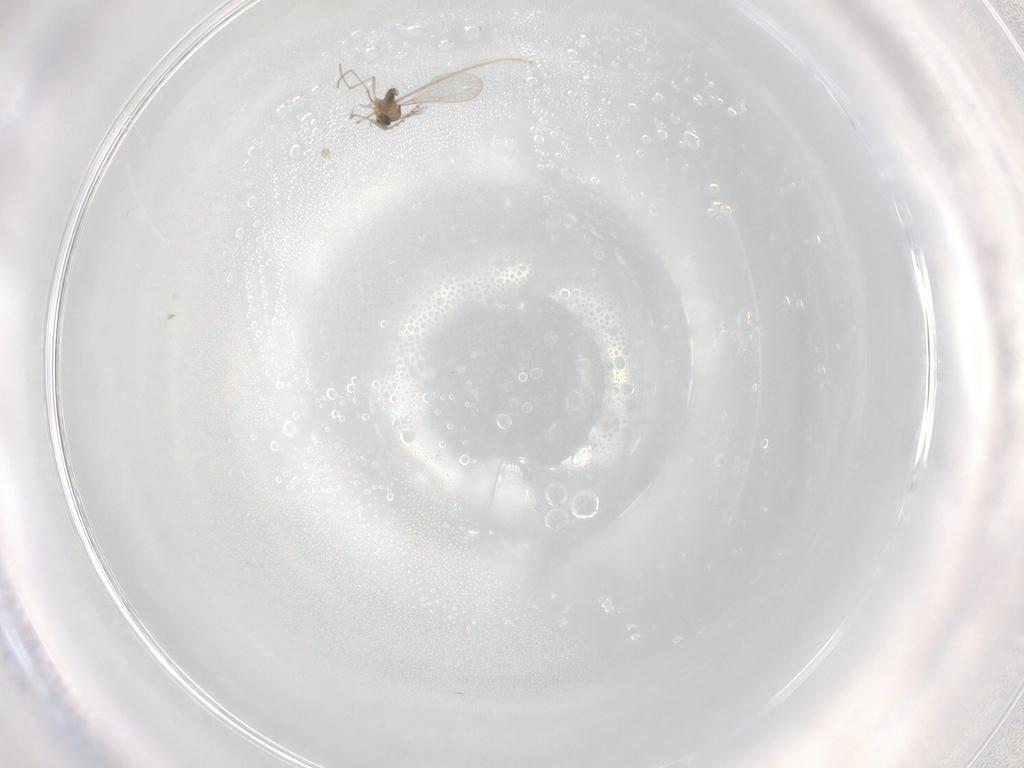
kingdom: Animalia
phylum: Arthropoda
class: Insecta
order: Diptera
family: Cecidomyiidae
